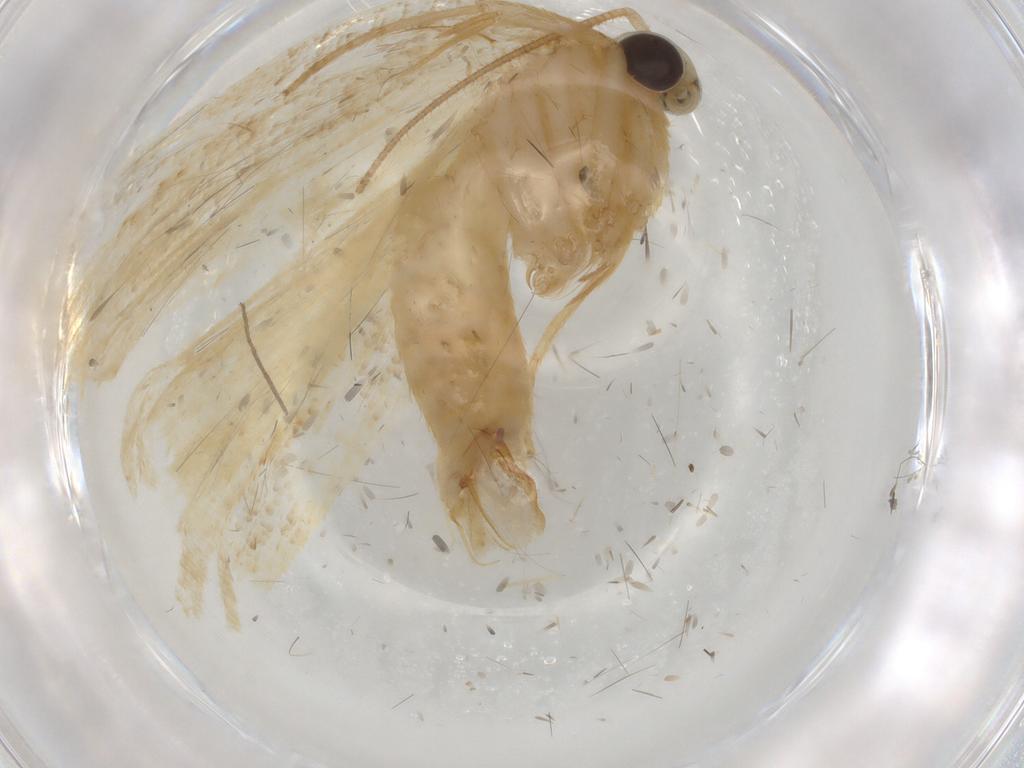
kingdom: Animalia
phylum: Arthropoda
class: Insecta
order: Lepidoptera
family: Tortricidae
